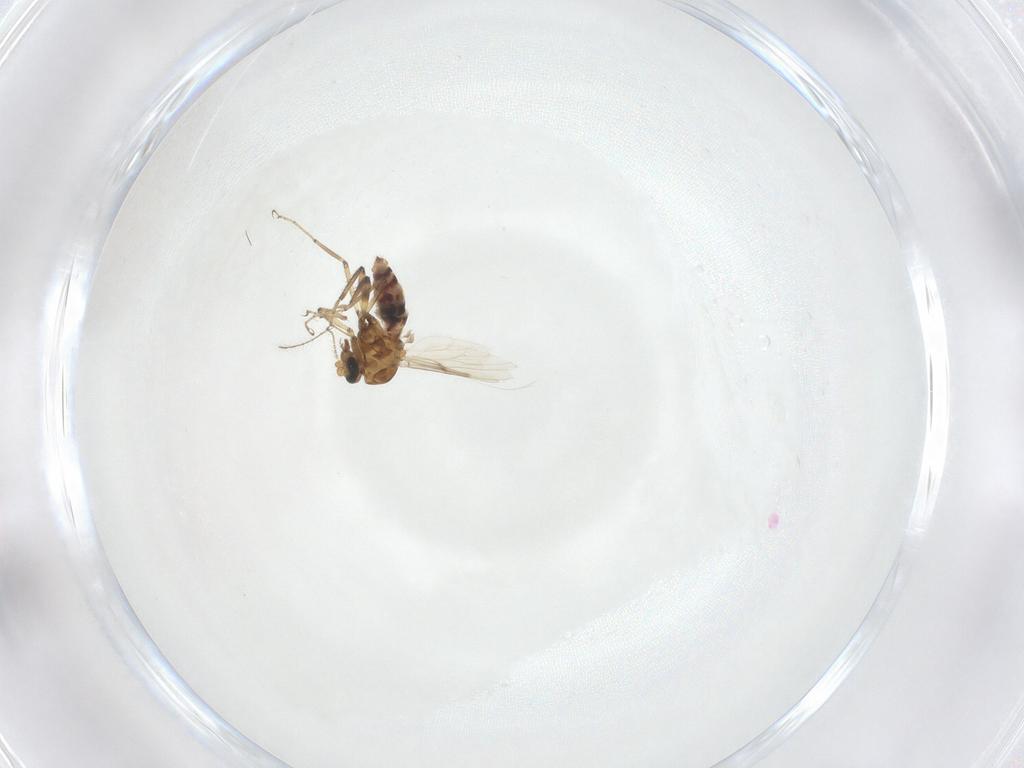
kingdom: Animalia
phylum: Arthropoda
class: Insecta
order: Diptera
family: Ceratopogonidae
